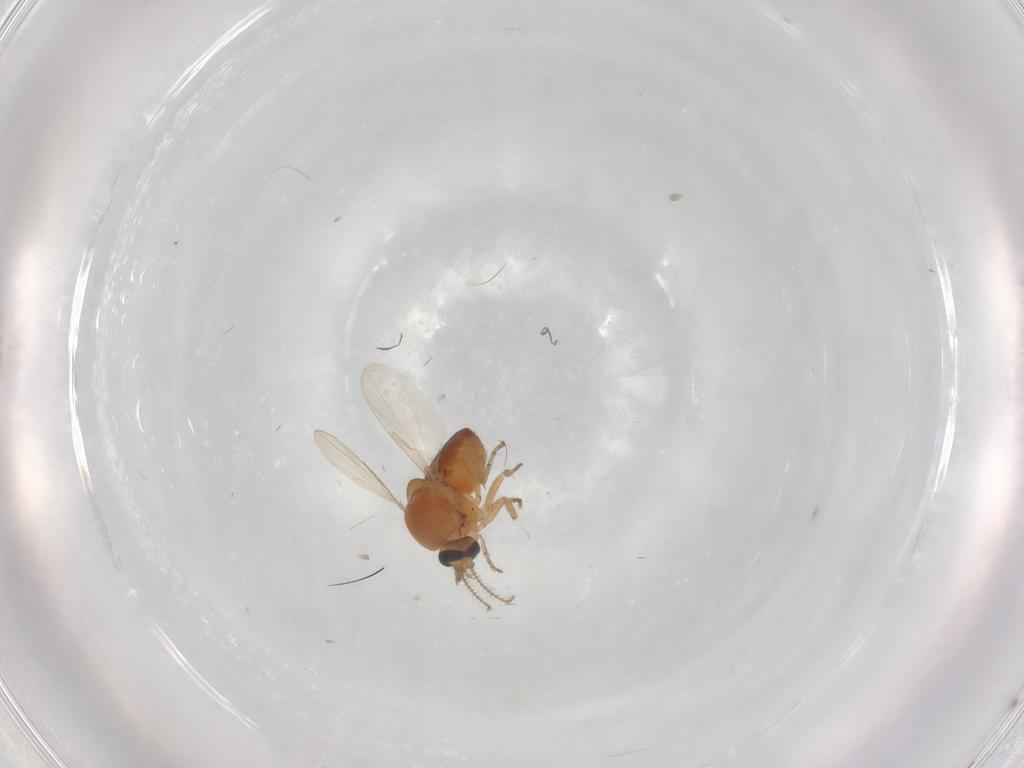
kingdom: Animalia
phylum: Arthropoda
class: Insecta
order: Diptera
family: Ceratopogonidae
